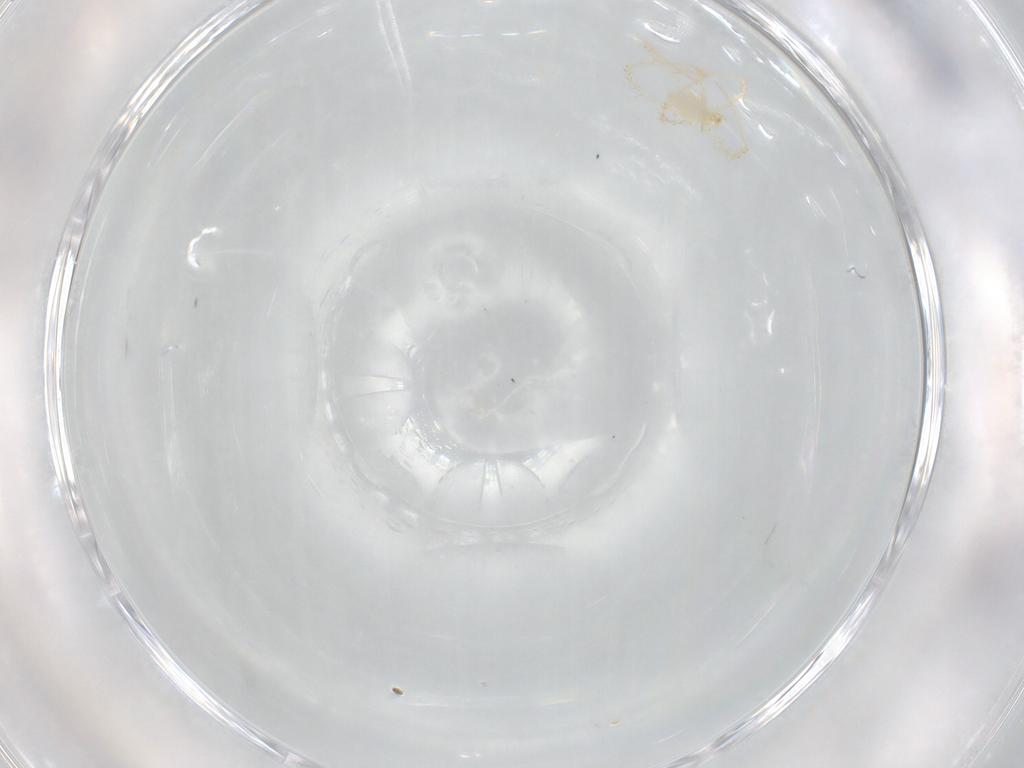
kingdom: Animalia
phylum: Arthropoda
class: Arachnida
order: Trombidiformes
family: Erythraeidae
